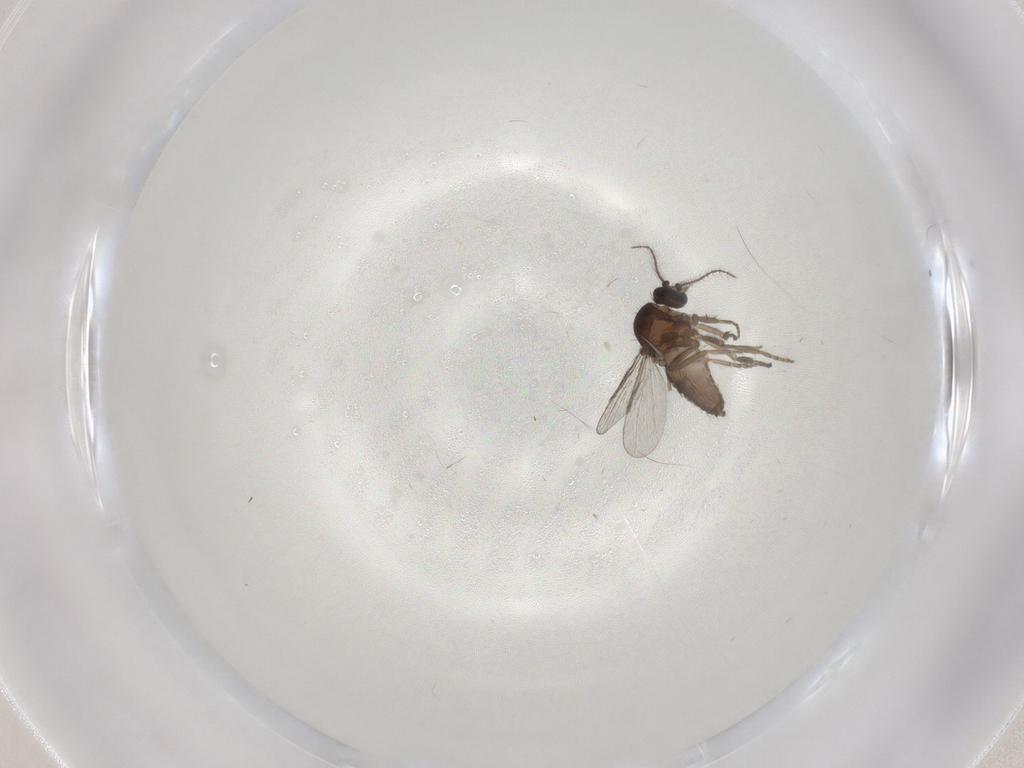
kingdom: Animalia
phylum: Arthropoda
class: Insecta
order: Diptera
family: Ceratopogonidae
